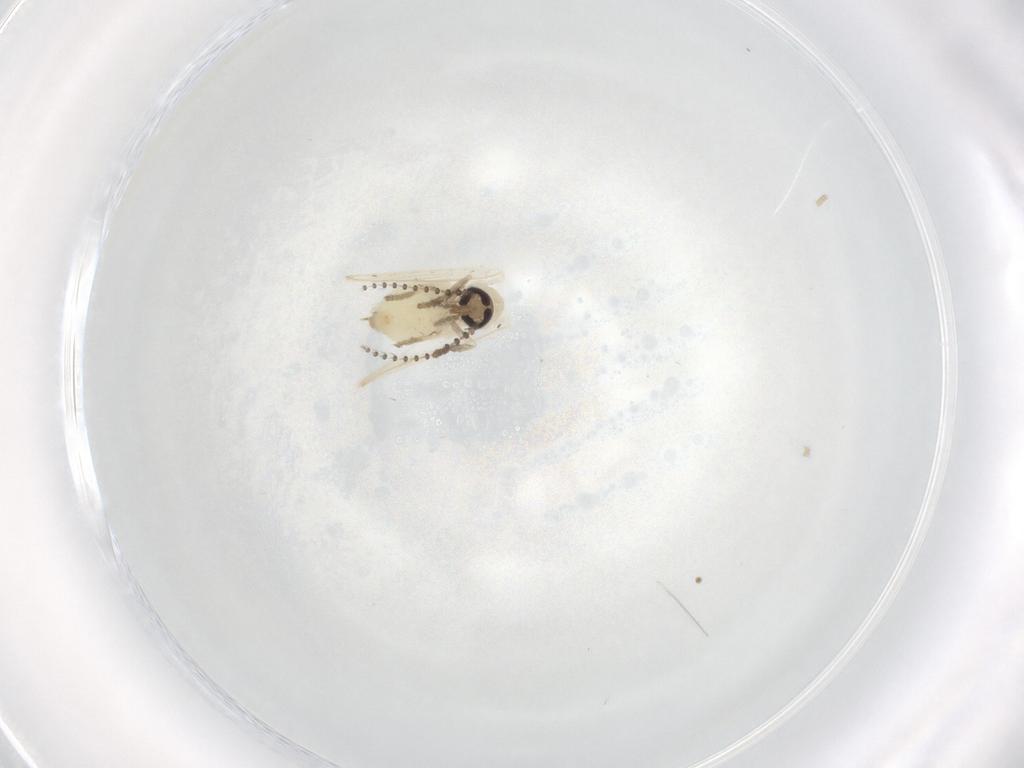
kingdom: Animalia
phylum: Arthropoda
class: Insecta
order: Diptera
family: Psychodidae
